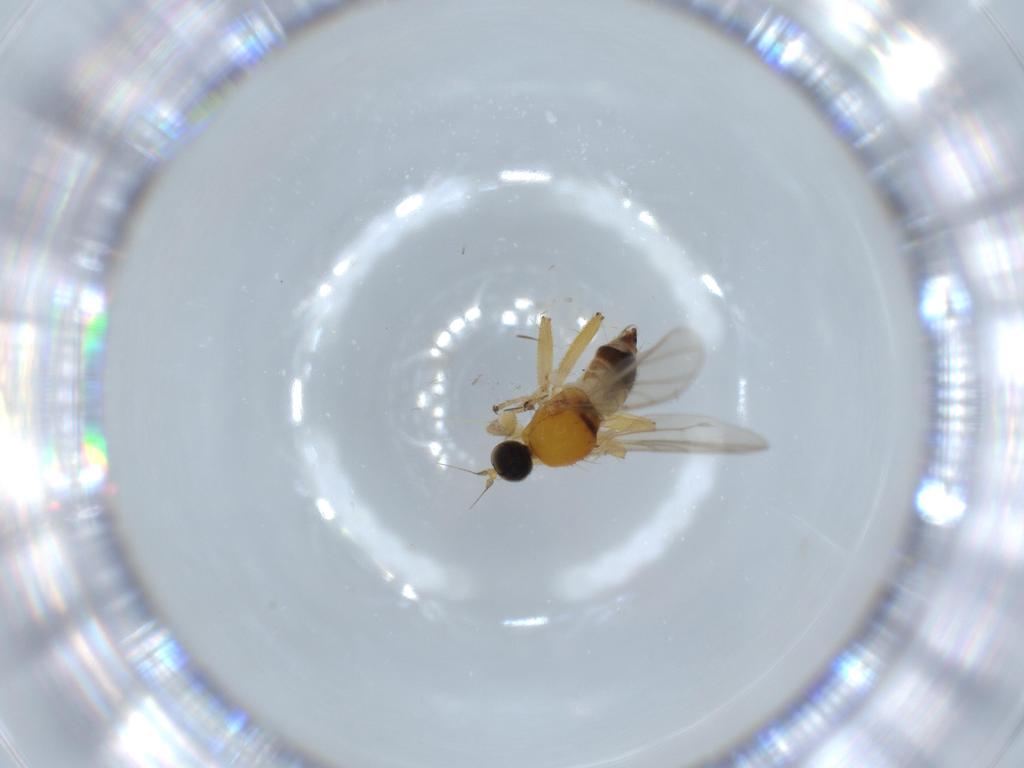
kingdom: Animalia
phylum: Arthropoda
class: Insecta
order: Diptera
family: Hybotidae
